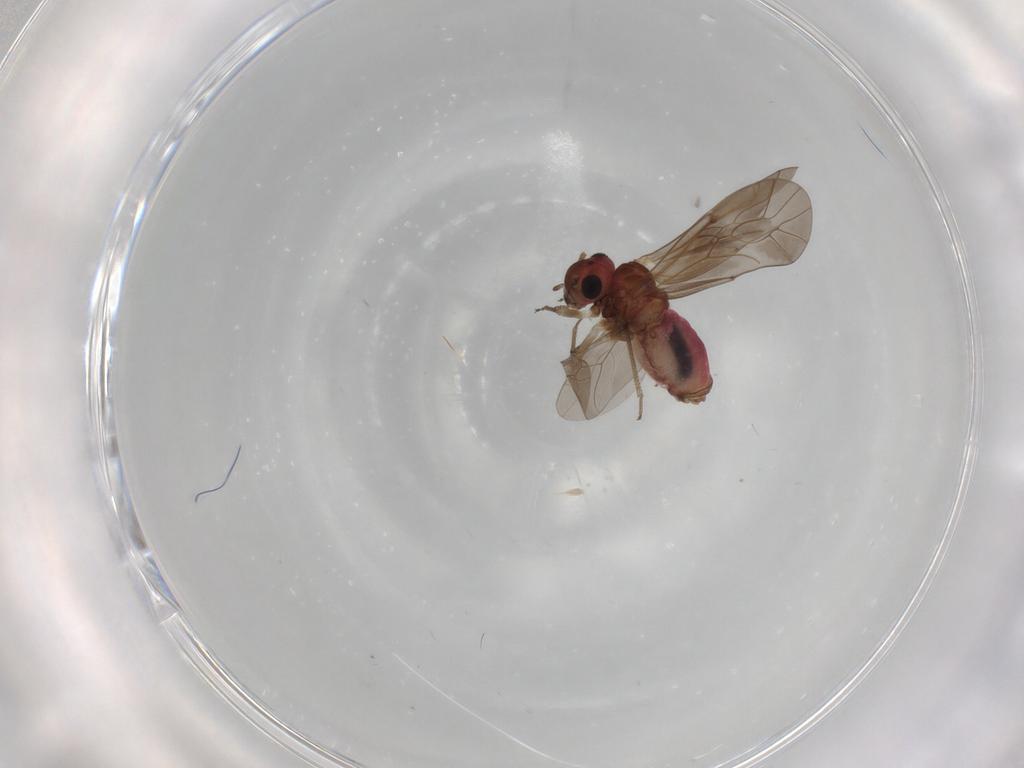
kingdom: Animalia
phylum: Arthropoda
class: Insecta
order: Psocodea
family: Lachesillidae
